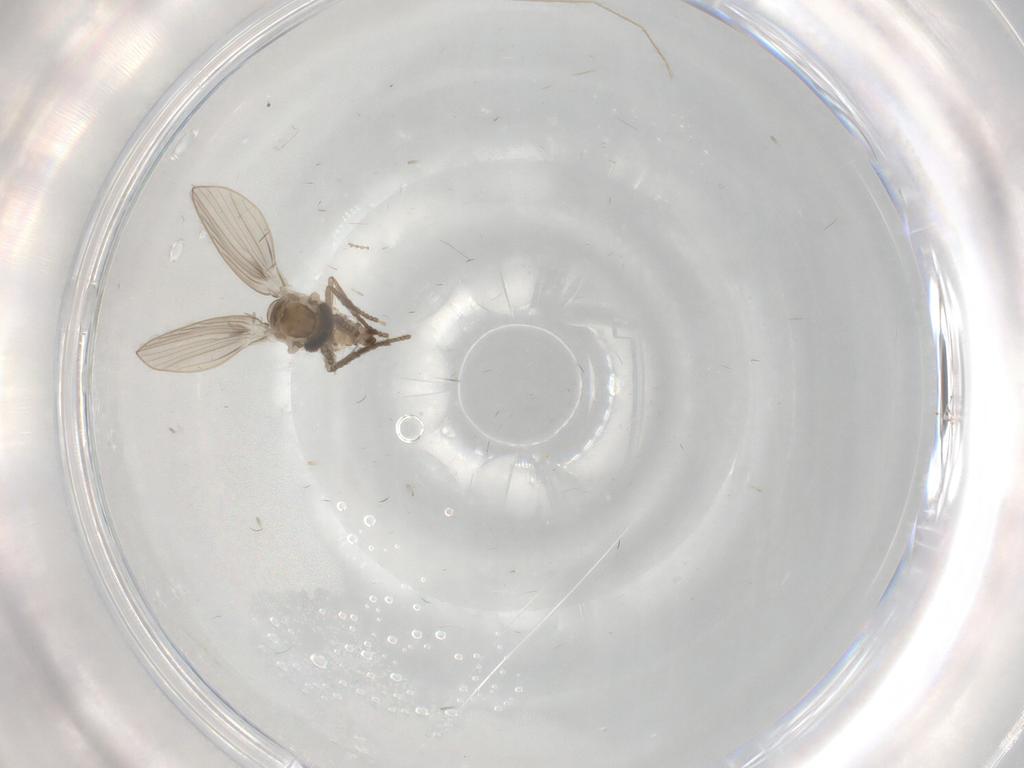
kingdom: Animalia
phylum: Arthropoda
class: Insecta
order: Diptera
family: Psychodidae
